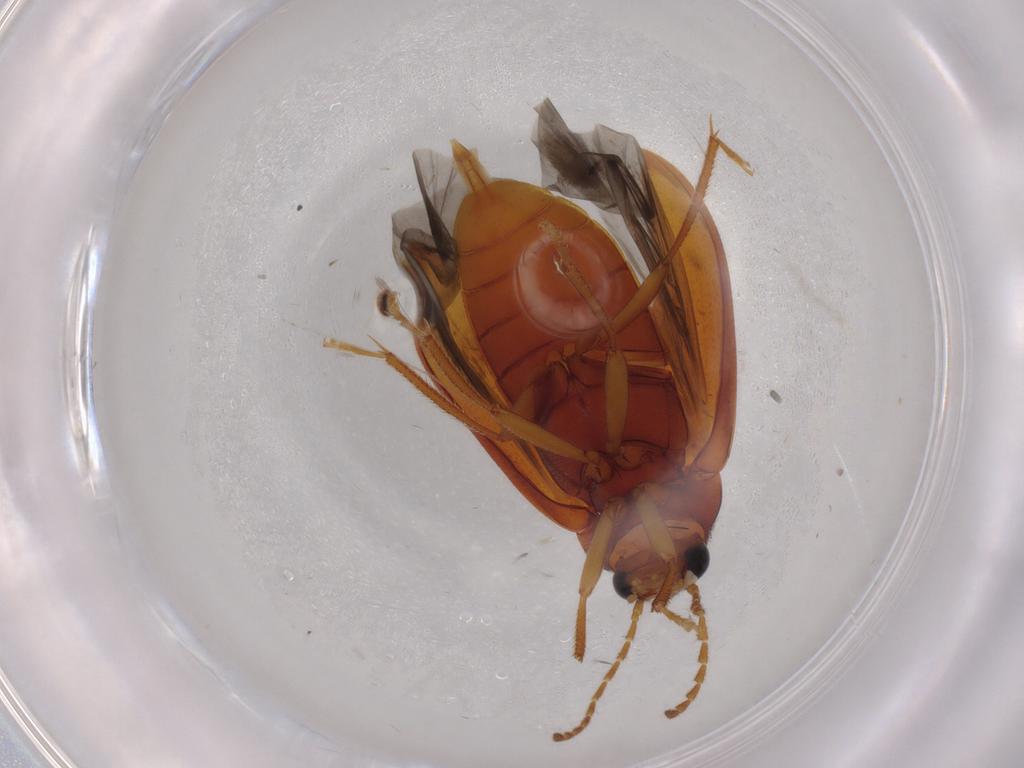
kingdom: Animalia
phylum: Arthropoda
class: Insecta
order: Coleoptera
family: Ptilodactylidae
